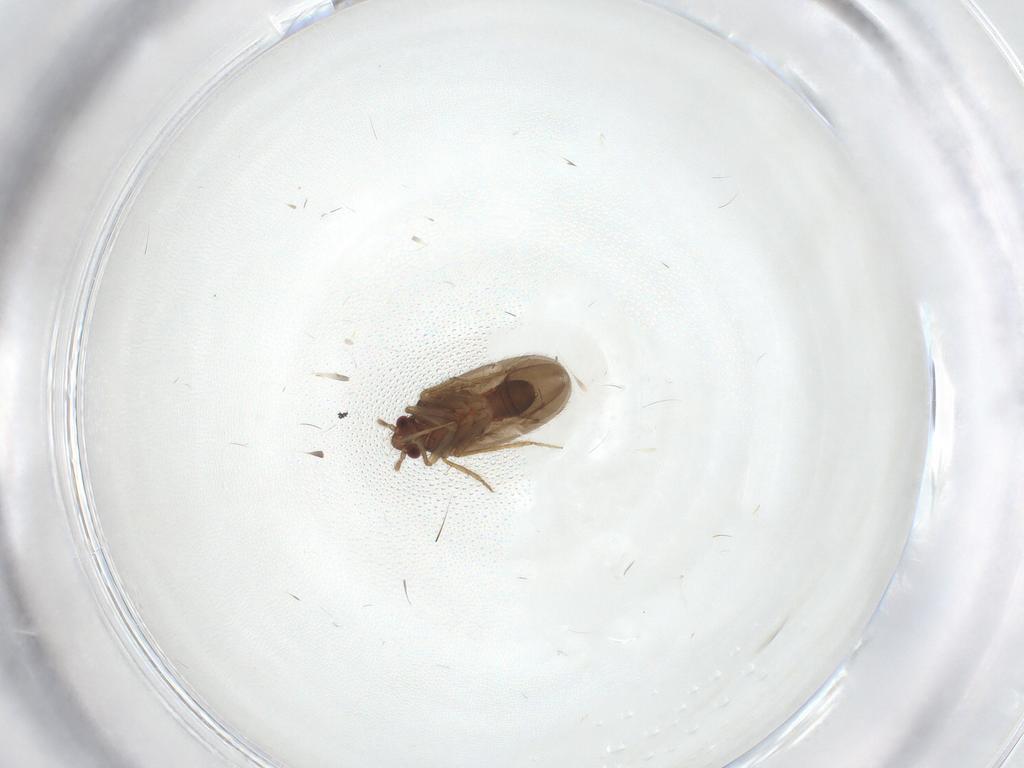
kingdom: Animalia
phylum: Arthropoda
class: Insecta
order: Hemiptera
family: Ceratocombidae
